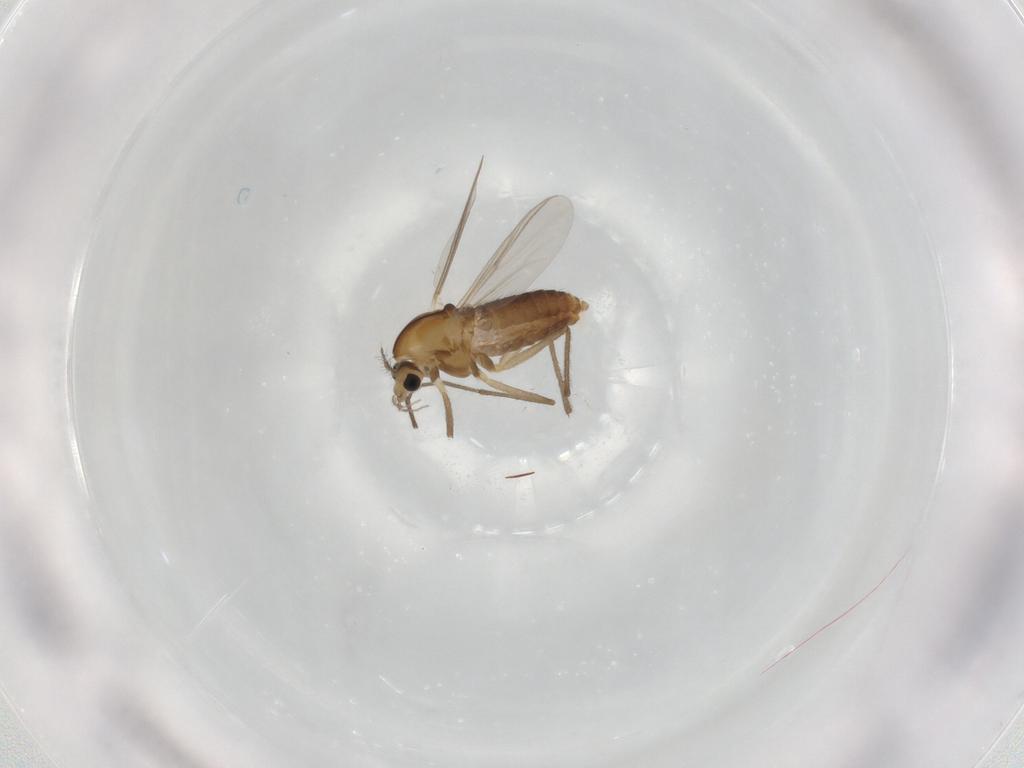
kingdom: Animalia
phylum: Arthropoda
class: Insecta
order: Diptera
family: Chironomidae
